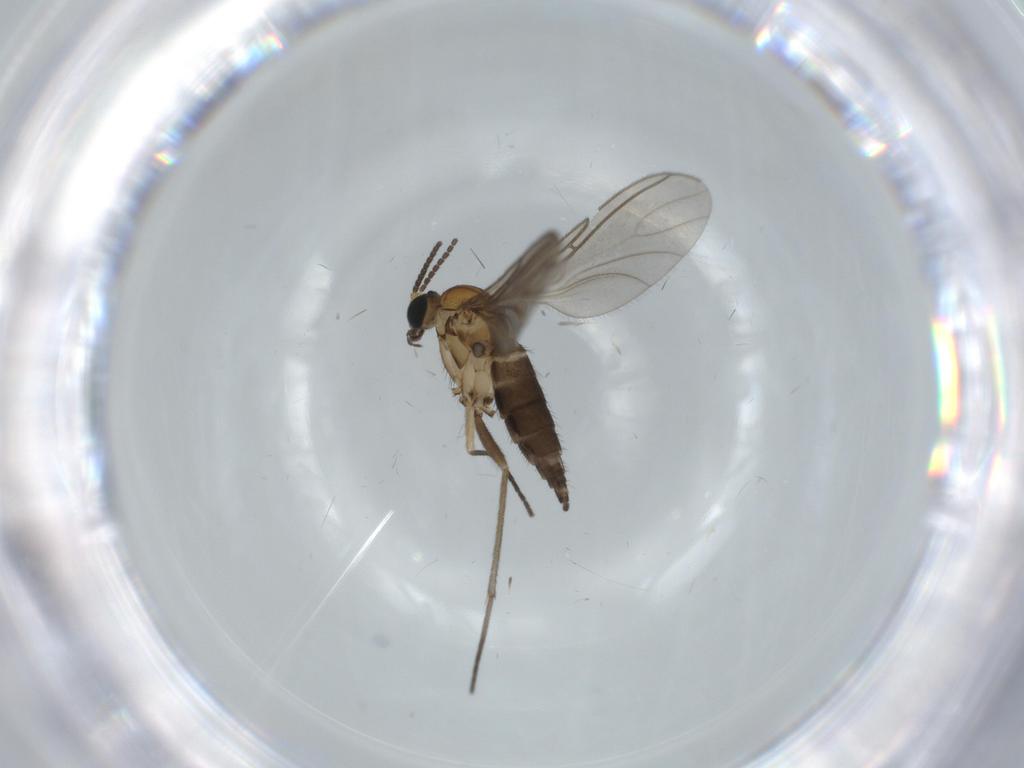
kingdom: Animalia
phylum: Arthropoda
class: Insecta
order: Diptera
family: Sciaridae
